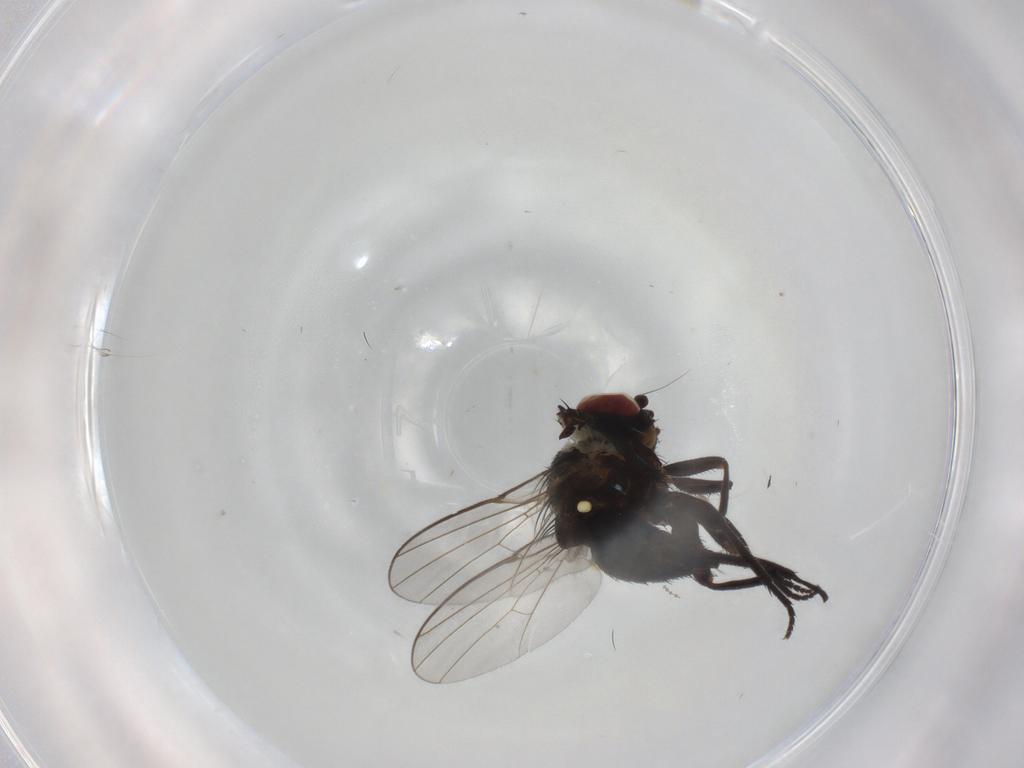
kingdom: Animalia
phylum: Arthropoda
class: Insecta
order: Diptera
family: Agromyzidae
